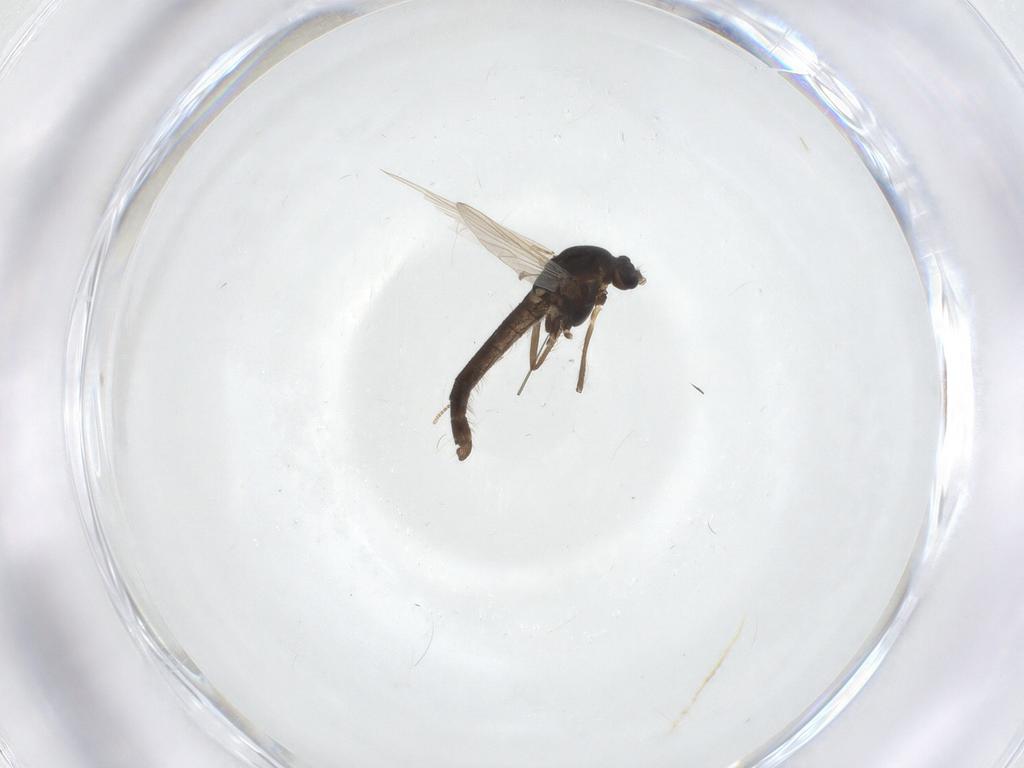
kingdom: Animalia
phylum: Arthropoda
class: Insecta
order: Diptera
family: Chironomidae
